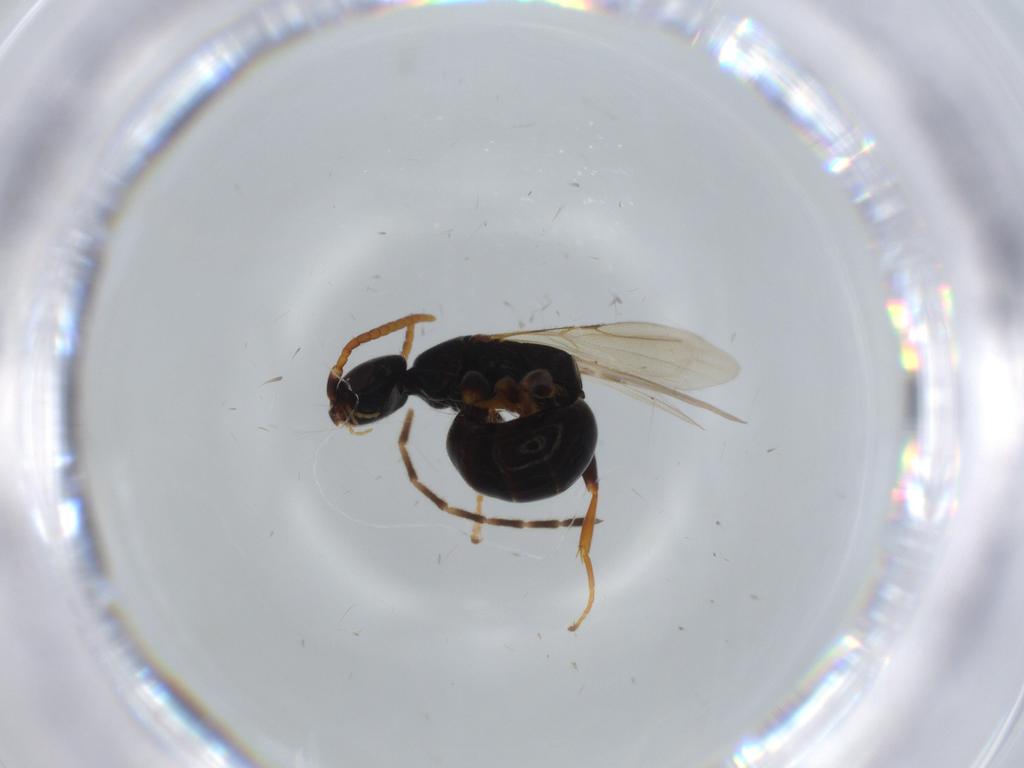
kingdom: Animalia
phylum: Arthropoda
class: Insecta
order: Hymenoptera
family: Bethylidae
